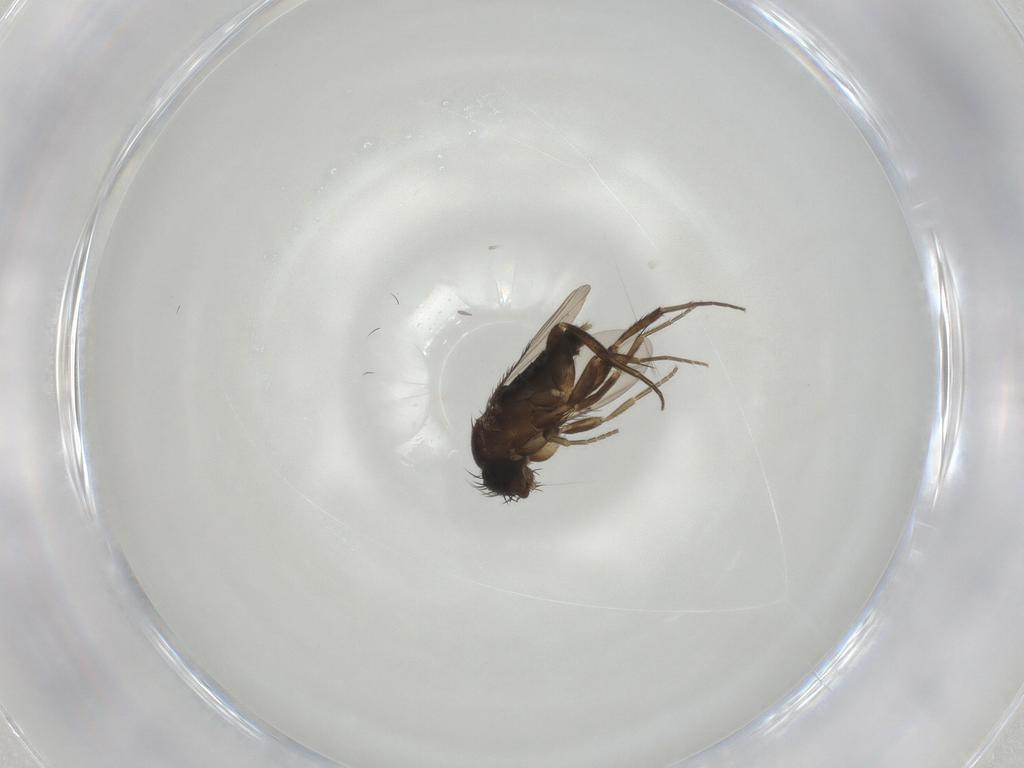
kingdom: Animalia
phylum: Arthropoda
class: Insecta
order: Diptera
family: Phoridae
